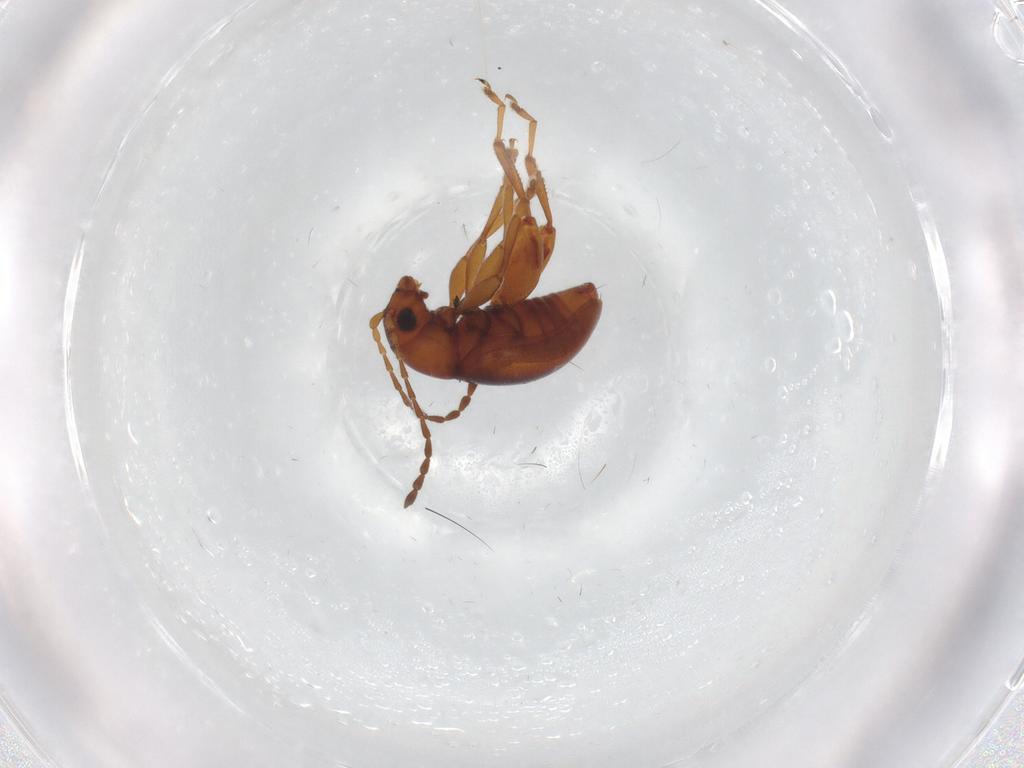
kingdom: Animalia
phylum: Arthropoda
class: Insecta
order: Coleoptera
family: Chrysomelidae
